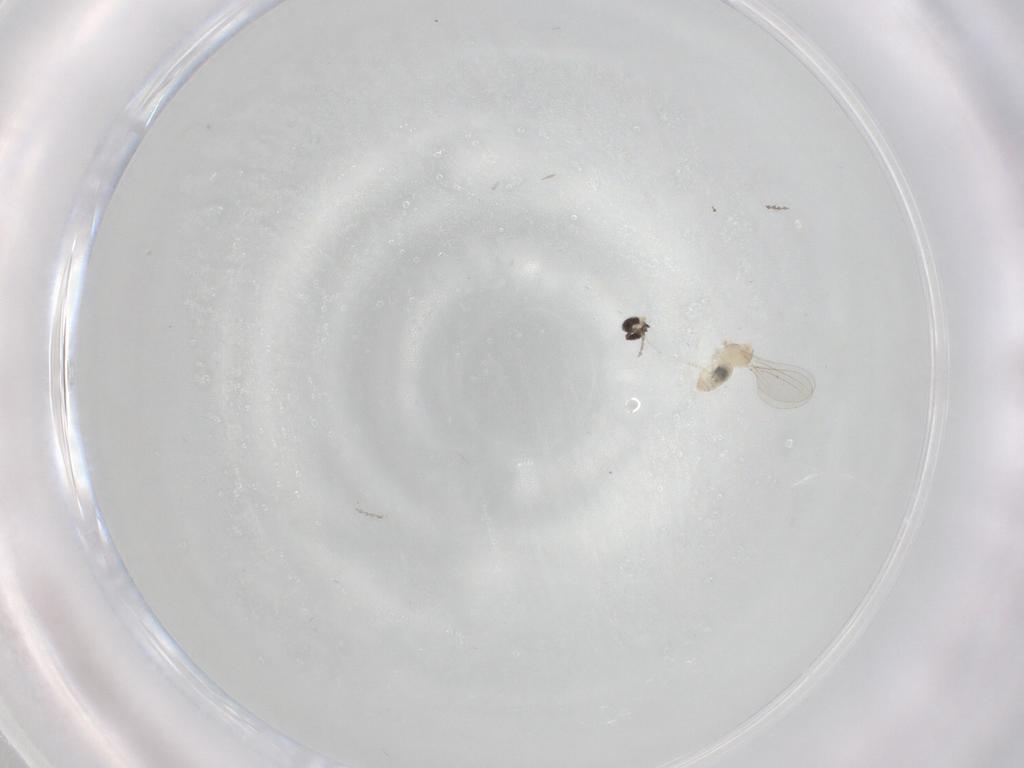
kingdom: Animalia
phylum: Arthropoda
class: Insecta
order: Diptera
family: Cecidomyiidae
